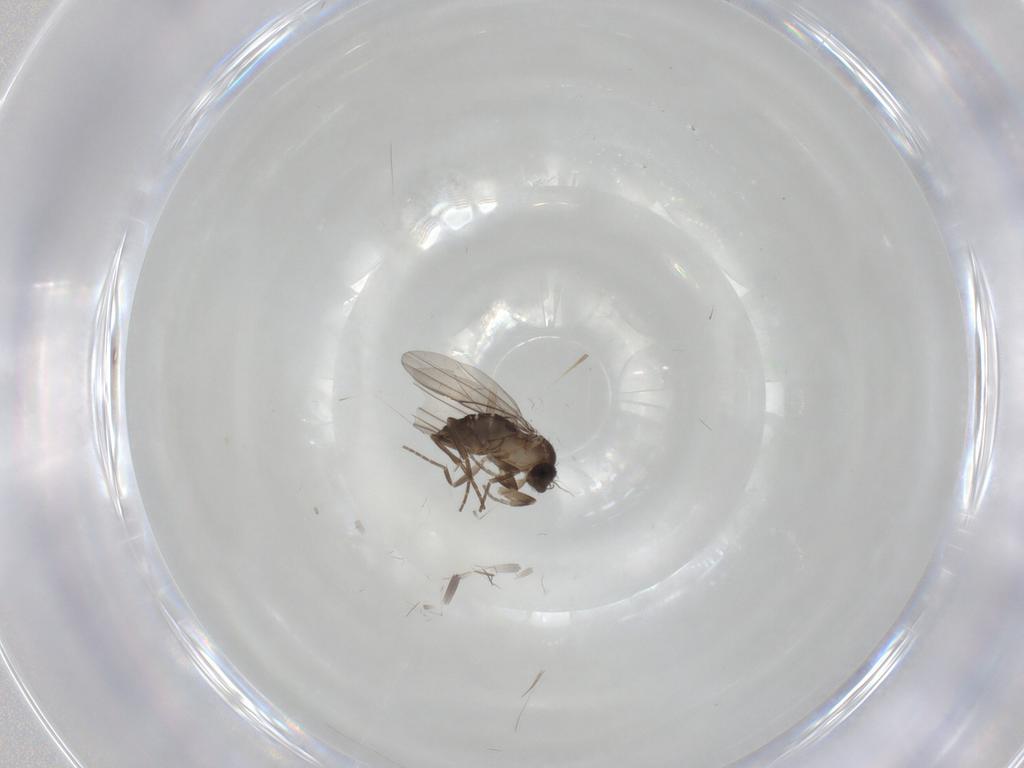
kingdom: Animalia
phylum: Arthropoda
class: Insecta
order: Diptera
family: Cecidomyiidae
